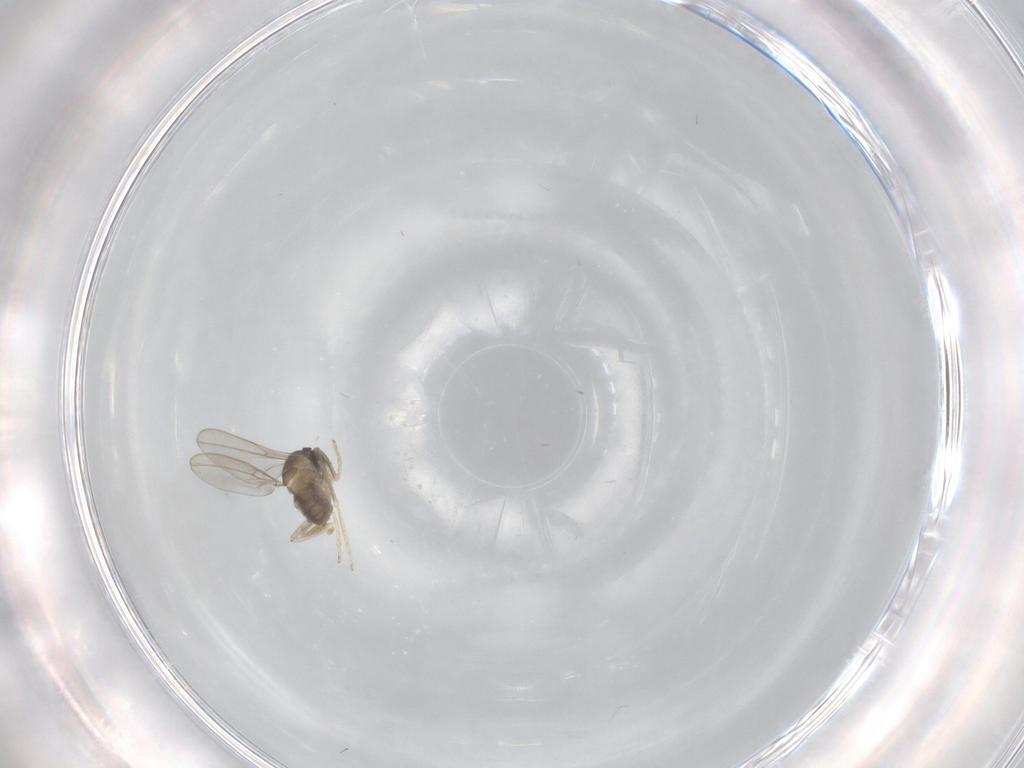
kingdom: Animalia
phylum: Arthropoda
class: Insecta
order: Diptera
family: Cecidomyiidae
